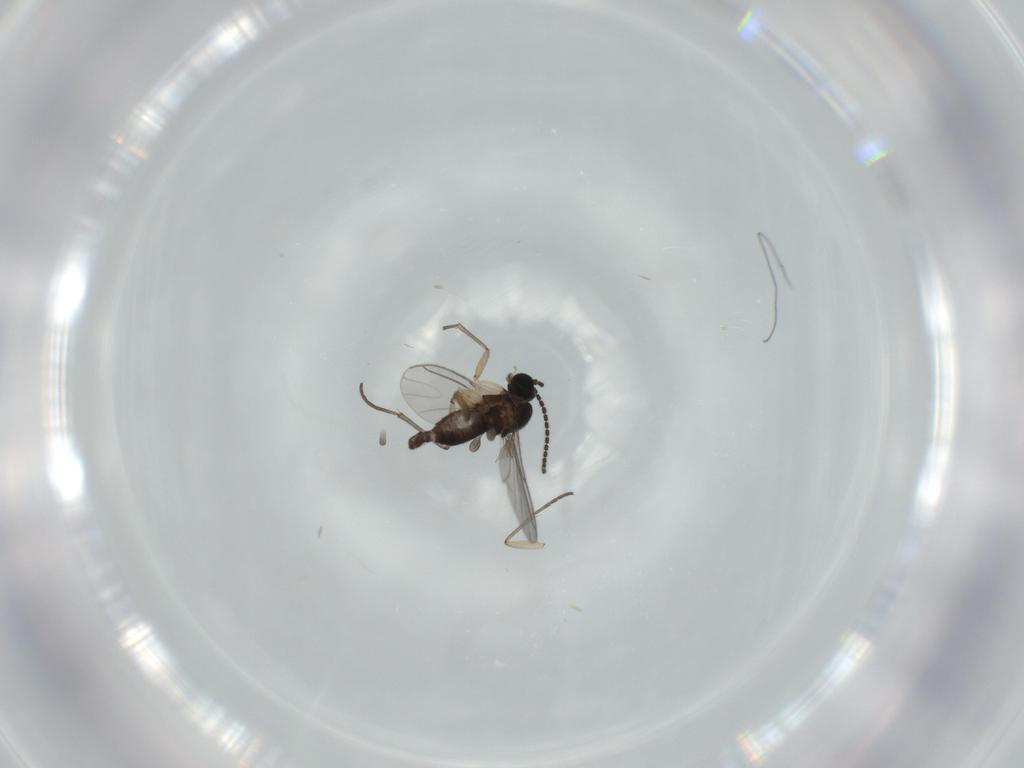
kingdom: Animalia
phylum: Arthropoda
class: Insecta
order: Diptera
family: Sciaridae
